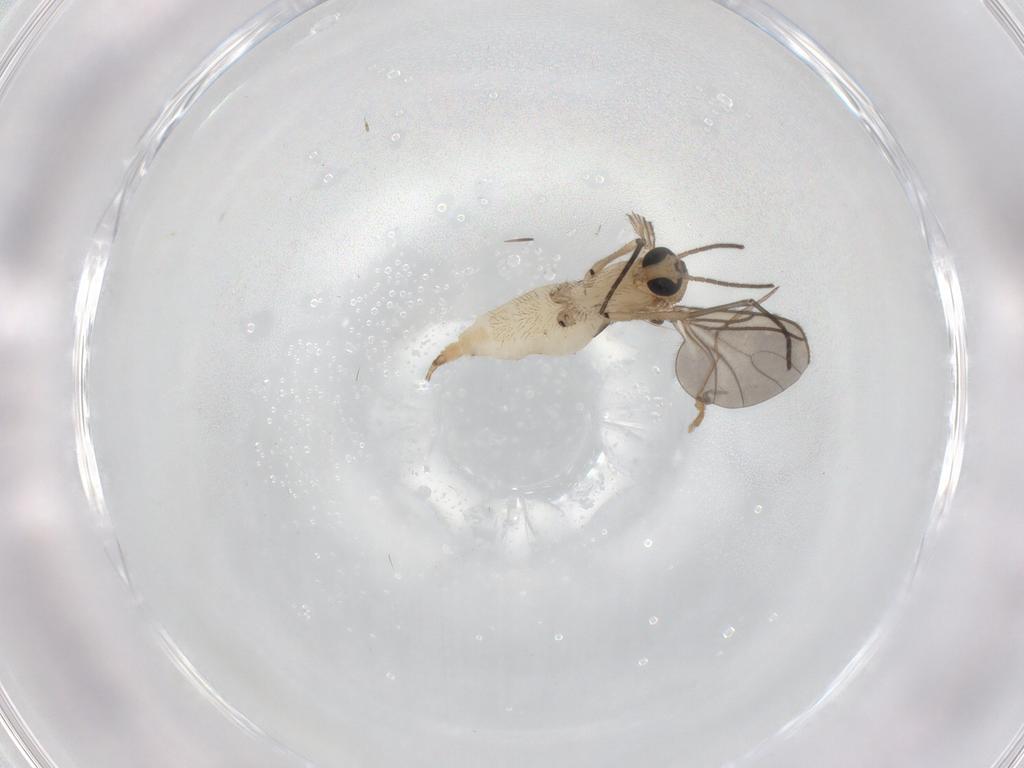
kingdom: Animalia
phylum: Arthropoda
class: Insecta
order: Diptera
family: Sciaridae
